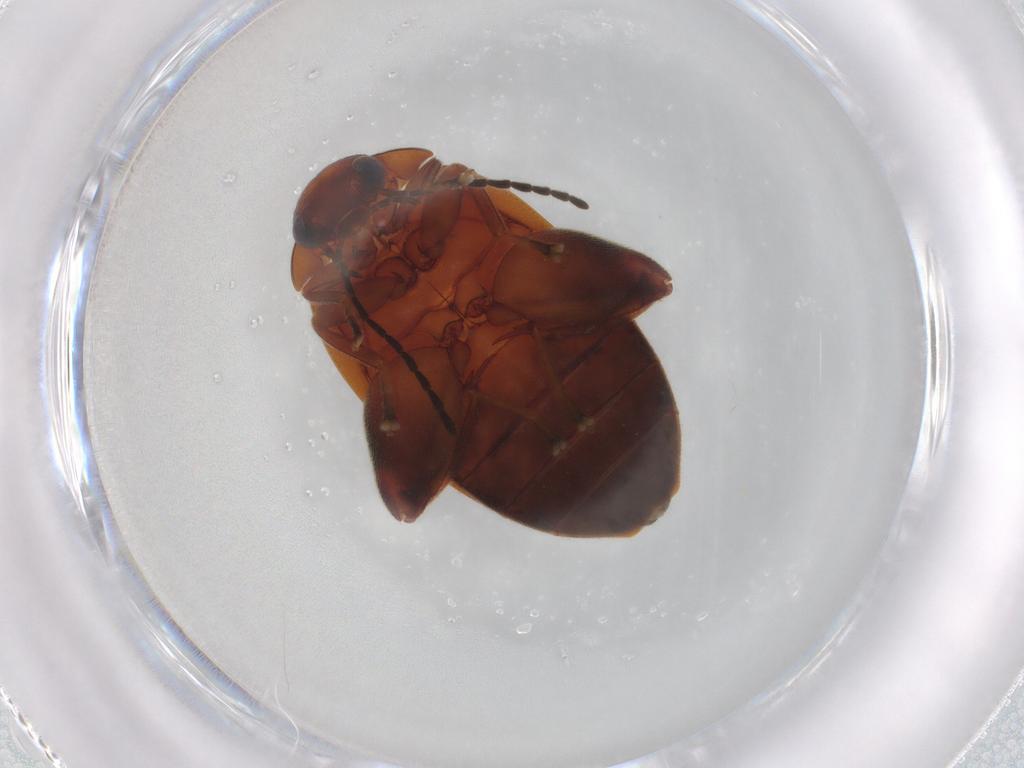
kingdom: Animalia
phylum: Arthropoda
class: Insecta
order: Coleoptera
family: Scirtidae
